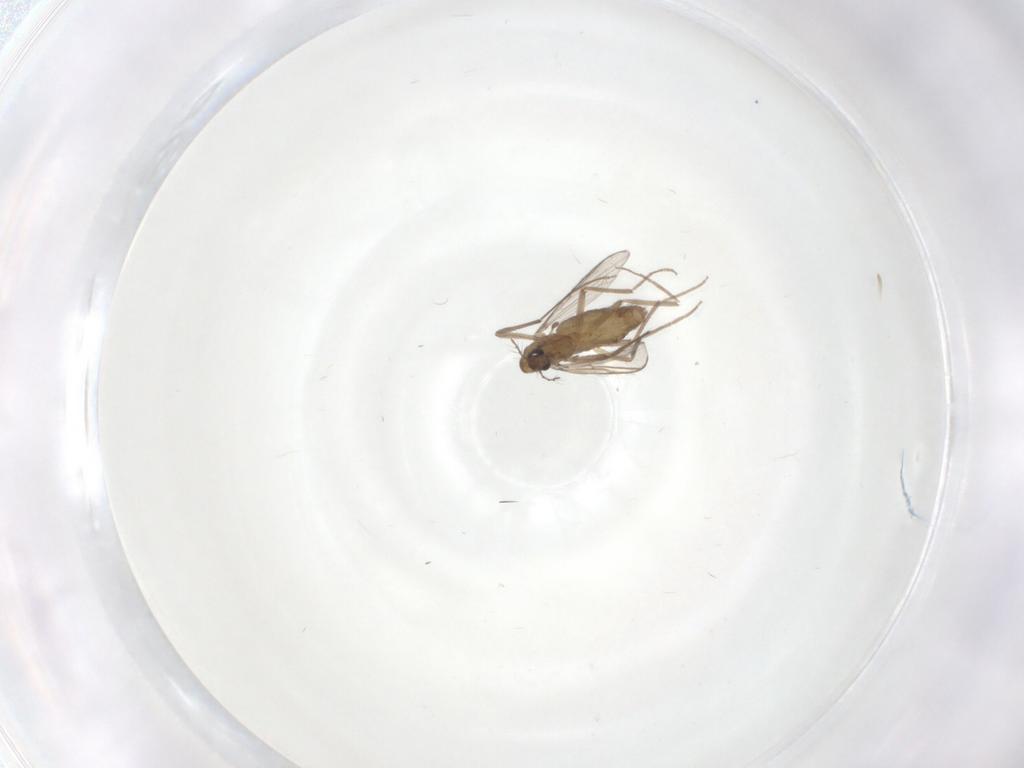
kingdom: Animalia
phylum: Arthropoda
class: Insecta
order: Diptera
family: Chironomidae
